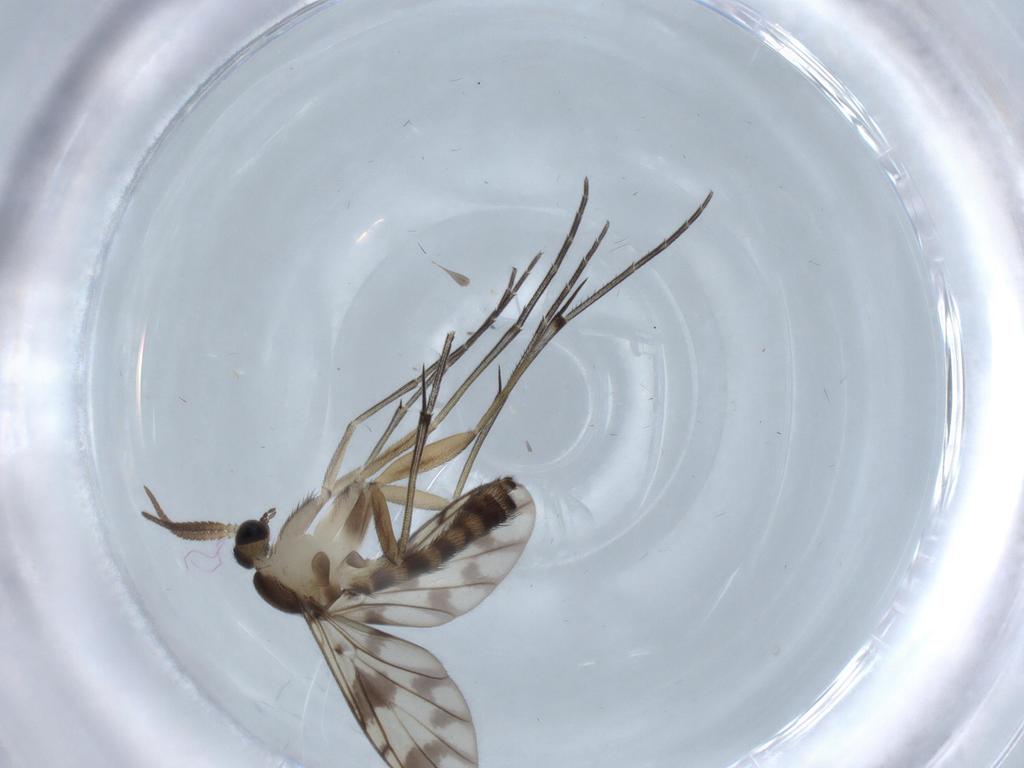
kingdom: Animalia
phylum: Arthropoda
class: Insecta
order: Diptera
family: Keroplatidae
